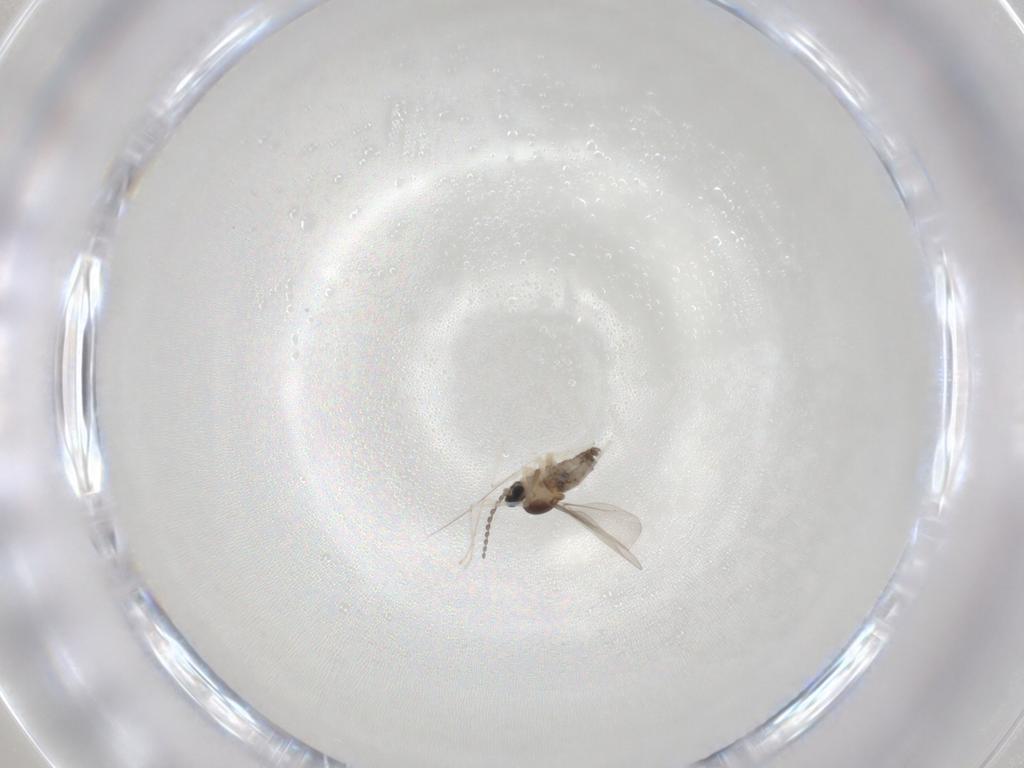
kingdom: Animalia
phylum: Arthropoda
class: Insecta
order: Diptera
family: Cecidomyiidae
